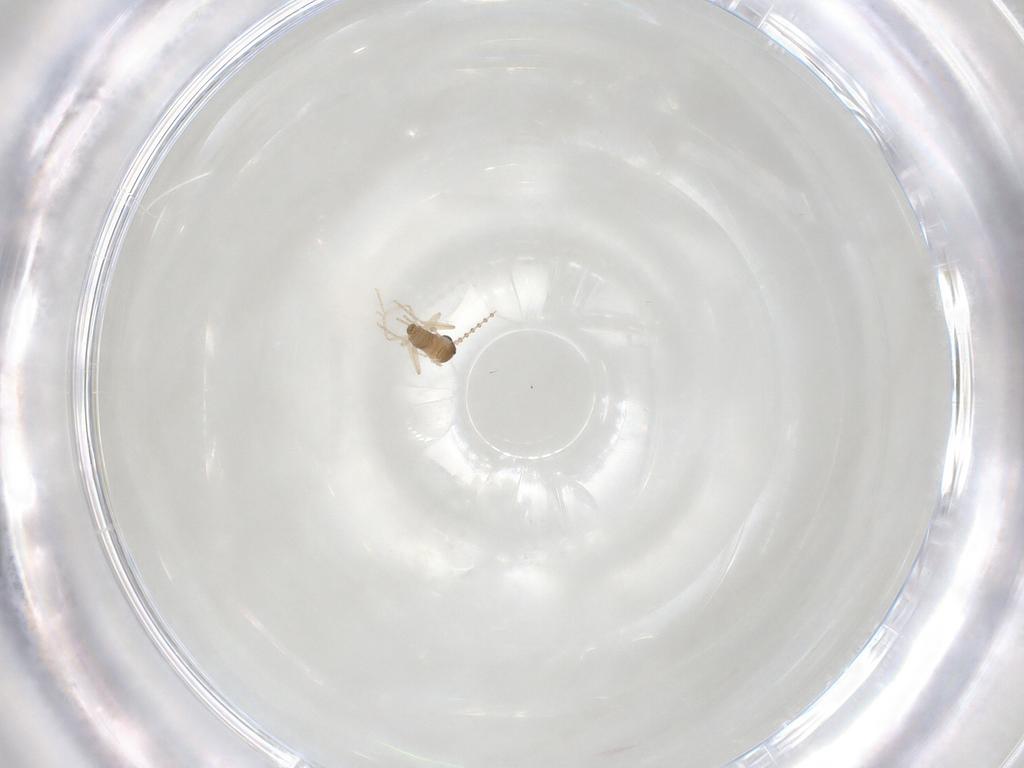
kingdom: Animalia
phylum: Arthropoda
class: Insecta
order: Diptera
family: Cecidomyiidae
